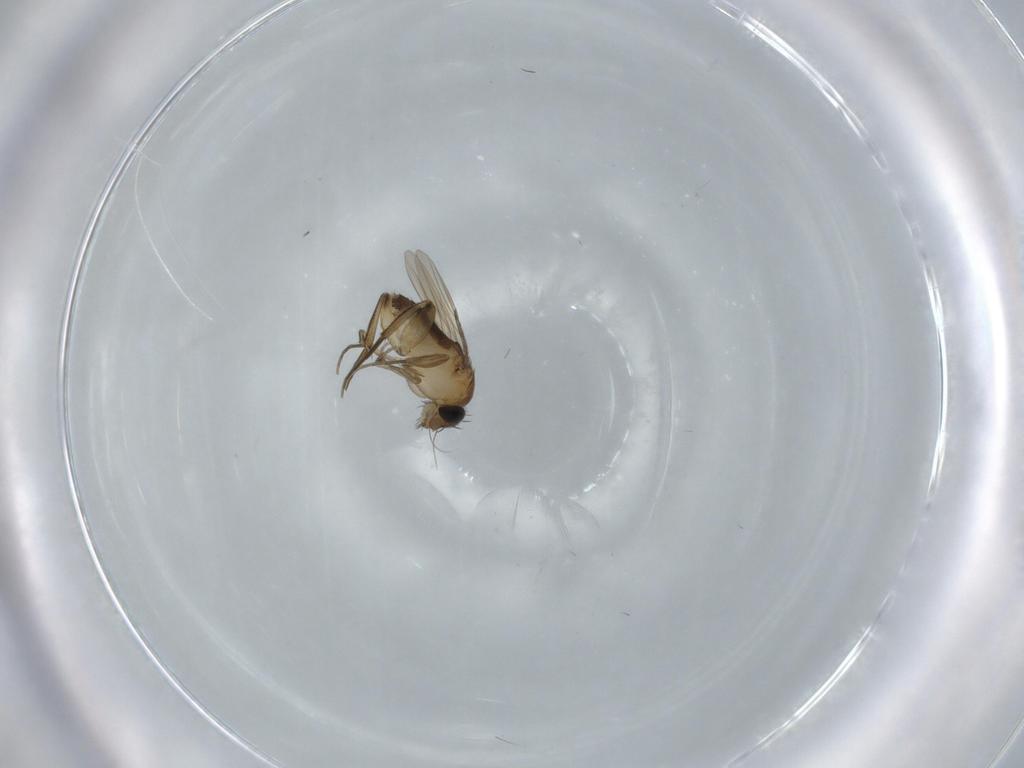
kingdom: Animalia
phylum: Arthropoda
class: Insecta
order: Diptera
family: Phoridae
